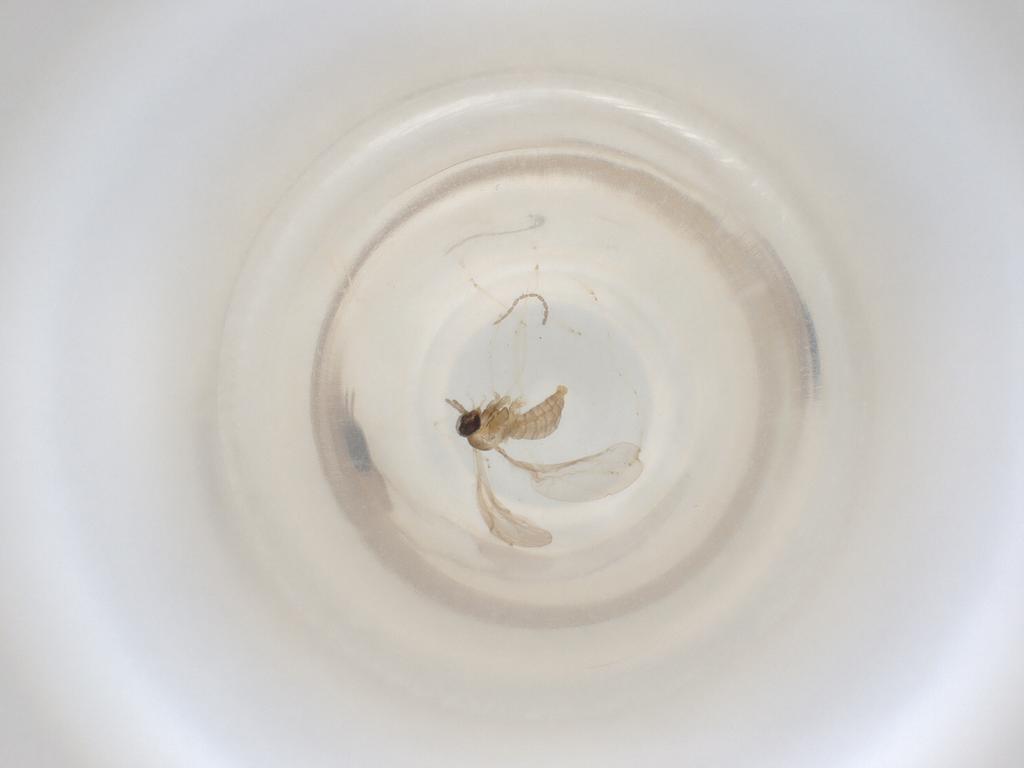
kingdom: Animalia
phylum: Arthropoda
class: Insecta
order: Diptera
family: Cecidomyiidae
